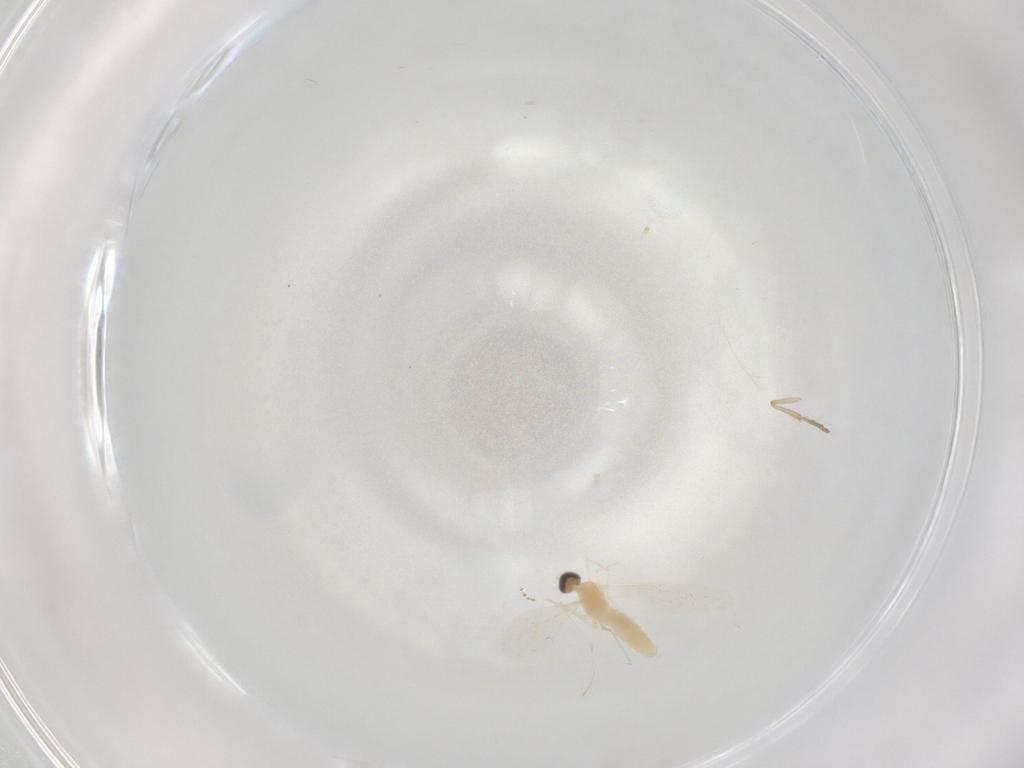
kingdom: Animalia
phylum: Arthropoda
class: Insecta
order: Diptera
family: Cecidomyiidae
